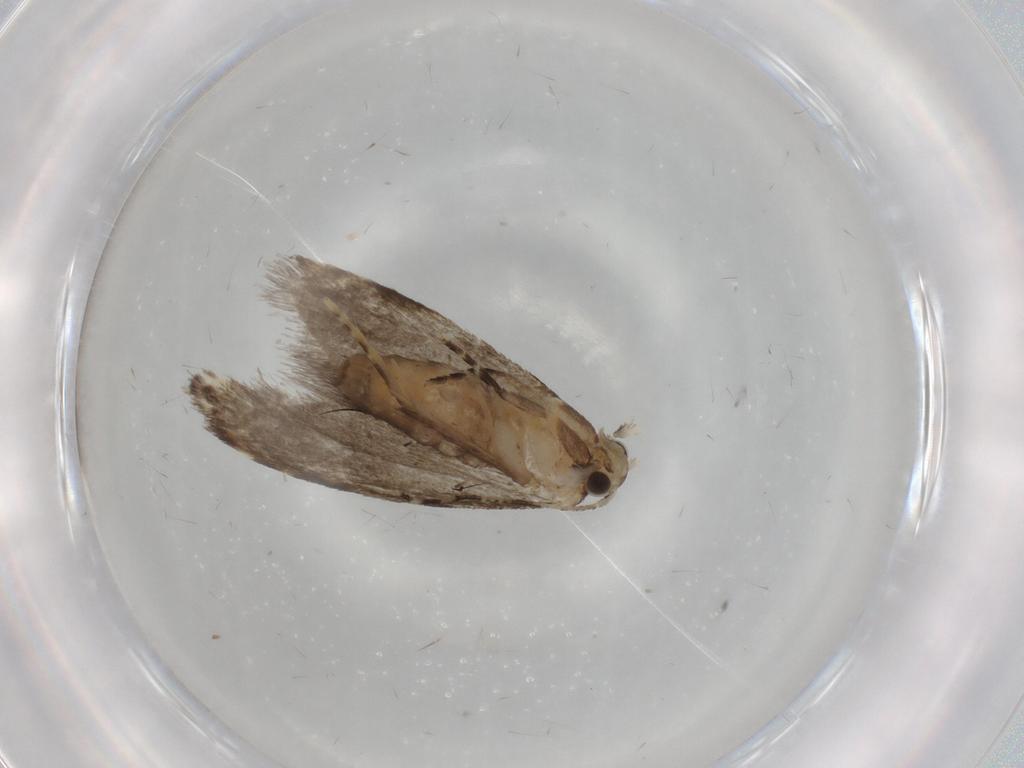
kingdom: Animalia
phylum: Arthropoda
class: Insecta
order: Lepidoptera
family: Tineidae
